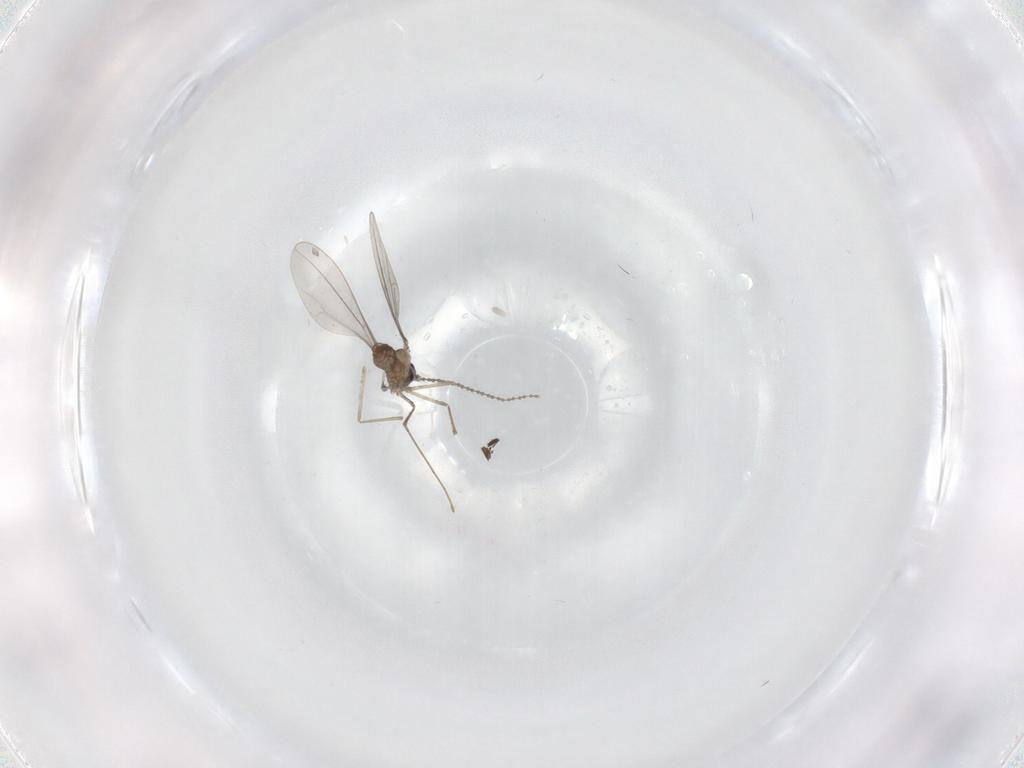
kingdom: Animalia
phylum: Arthropoda
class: Insecta
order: Diptera
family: Cecidomyiidae
